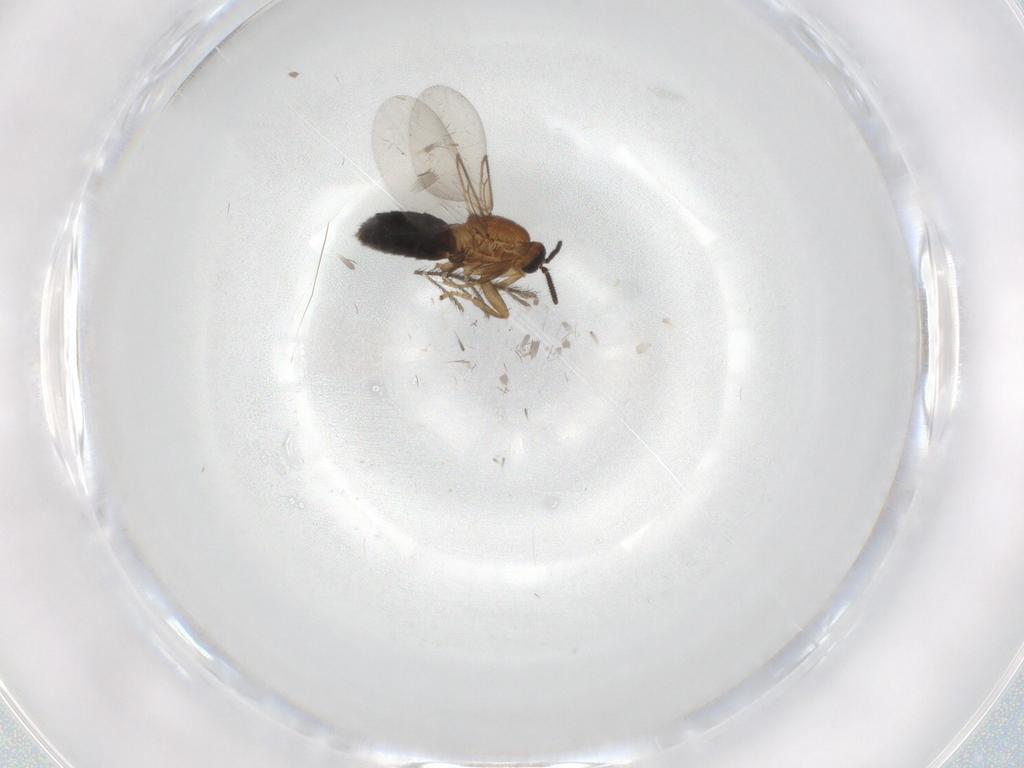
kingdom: Animalia
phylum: Arthropoda
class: Insecta
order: Diptera
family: Scatopsidae
